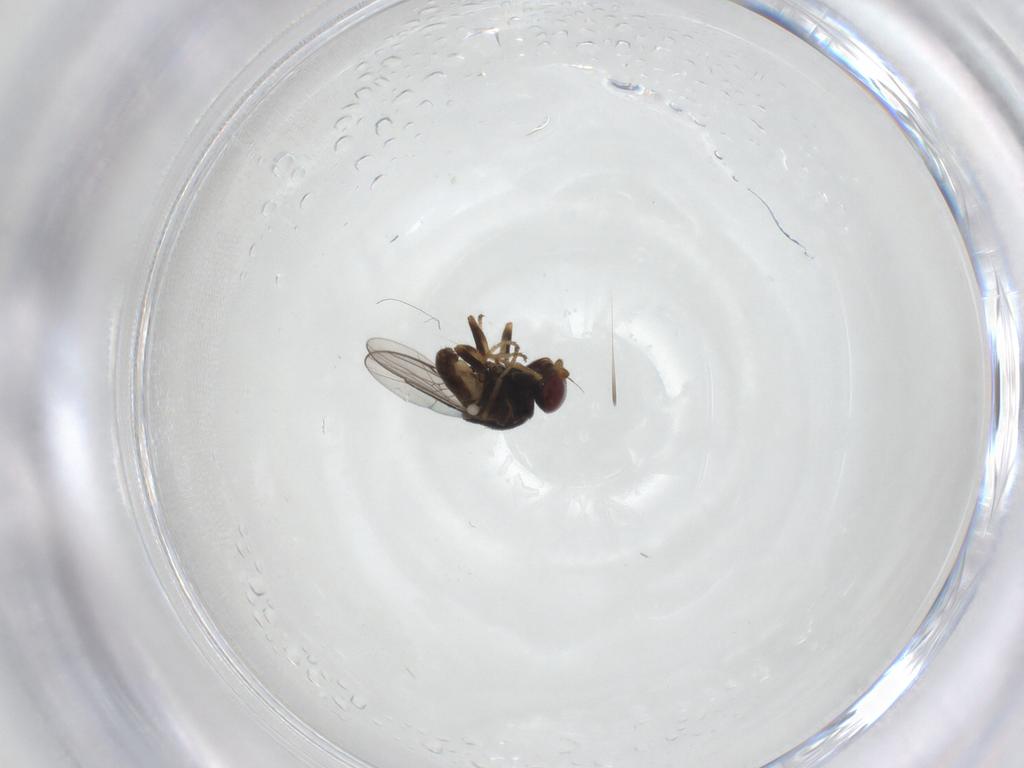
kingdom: Animalia
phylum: Arthropoda
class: Insecta
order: Diptera
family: Chloropidae
